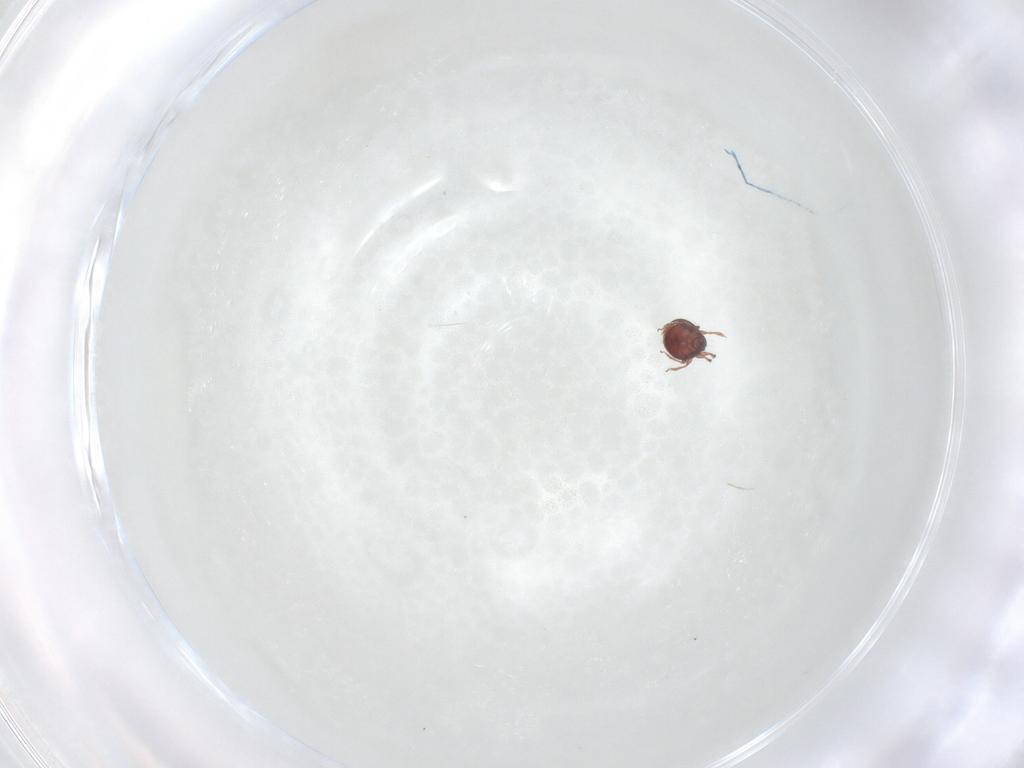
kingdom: Animalia
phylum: Arthropoda
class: Arachnida
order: Sarcoptiformes
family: Scheloribatidae
